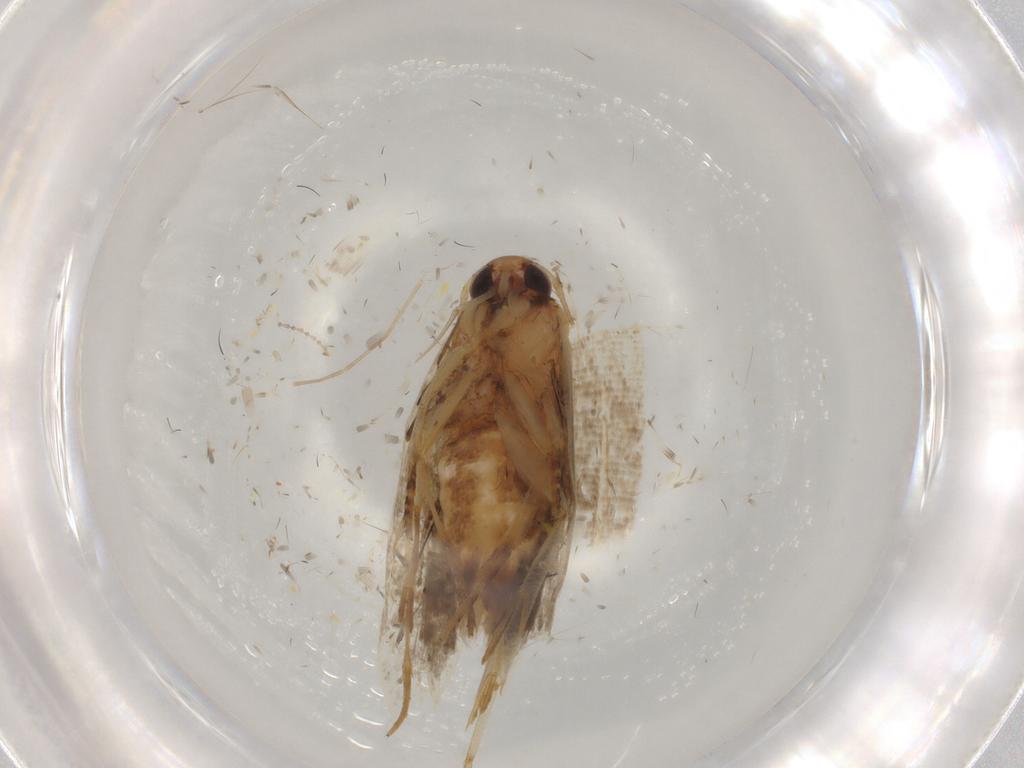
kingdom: Animalia
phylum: Arthropoda
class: Insecta
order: Lepidoptera
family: Gelechiidae
